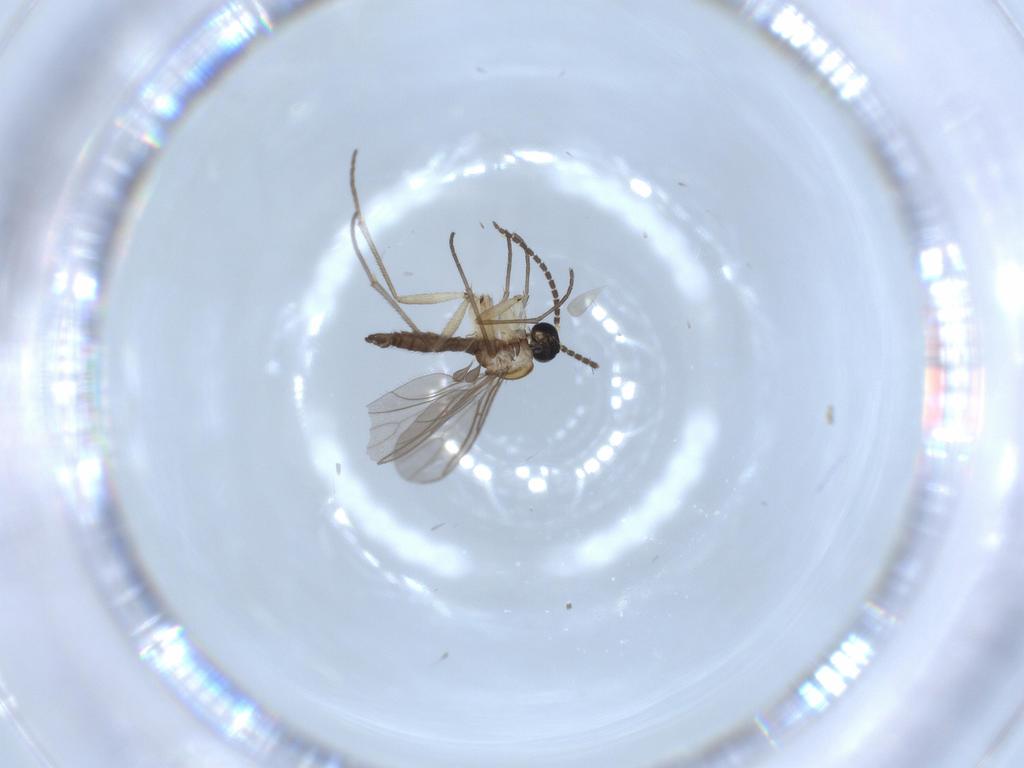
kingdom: Animalia
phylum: Arthropoda
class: Insecta
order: Diptera
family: Sciaridae
